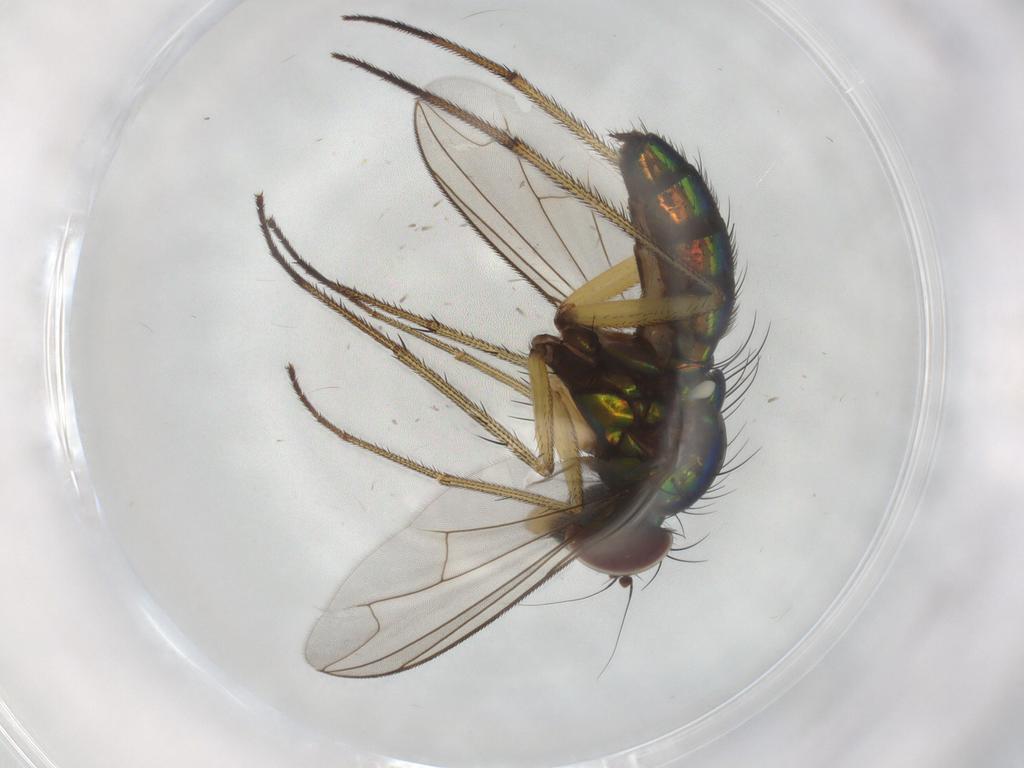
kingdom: Animalia
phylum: Arthropoda
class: Insecta
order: Diptera
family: Dolichopodidae
